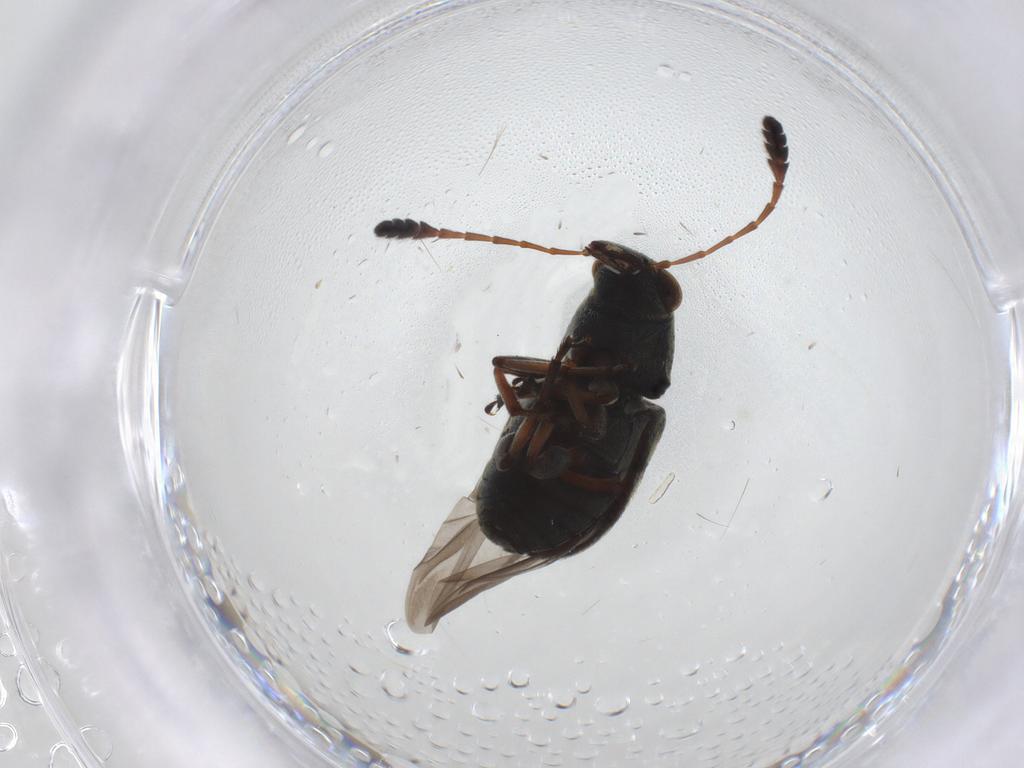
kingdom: Animalia
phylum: Arthropoda
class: Insecta
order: Coleoptera
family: Anthribidae
